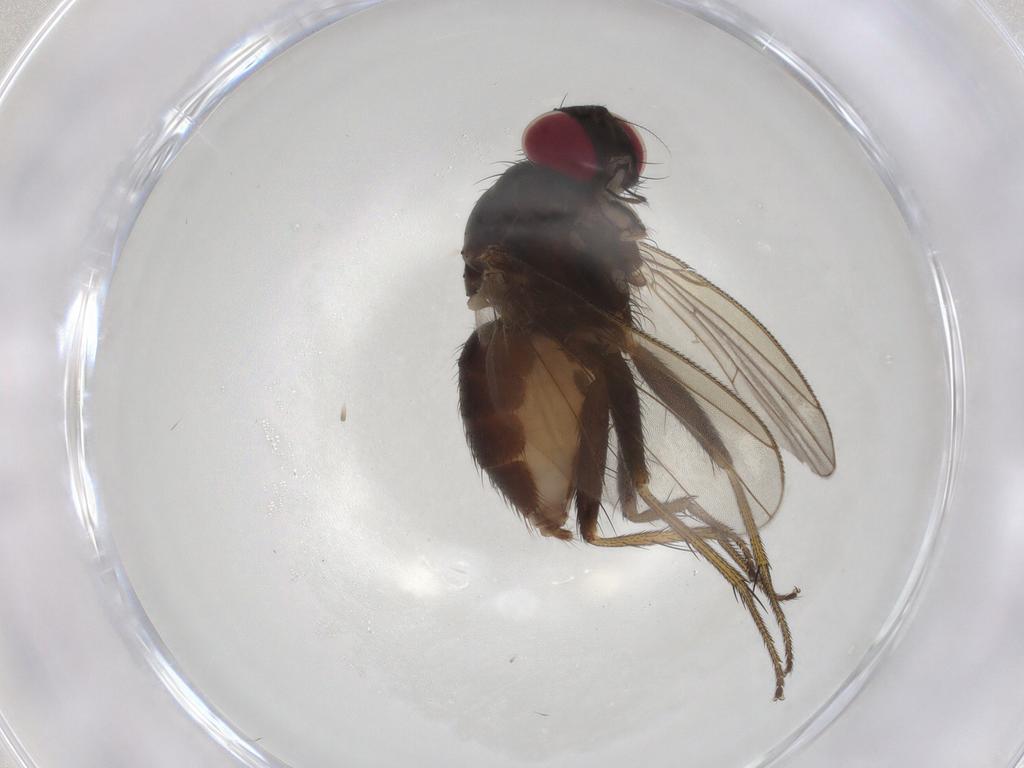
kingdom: Animalia
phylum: Arthropoda
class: Insecta
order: Diptera
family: Muscidae
